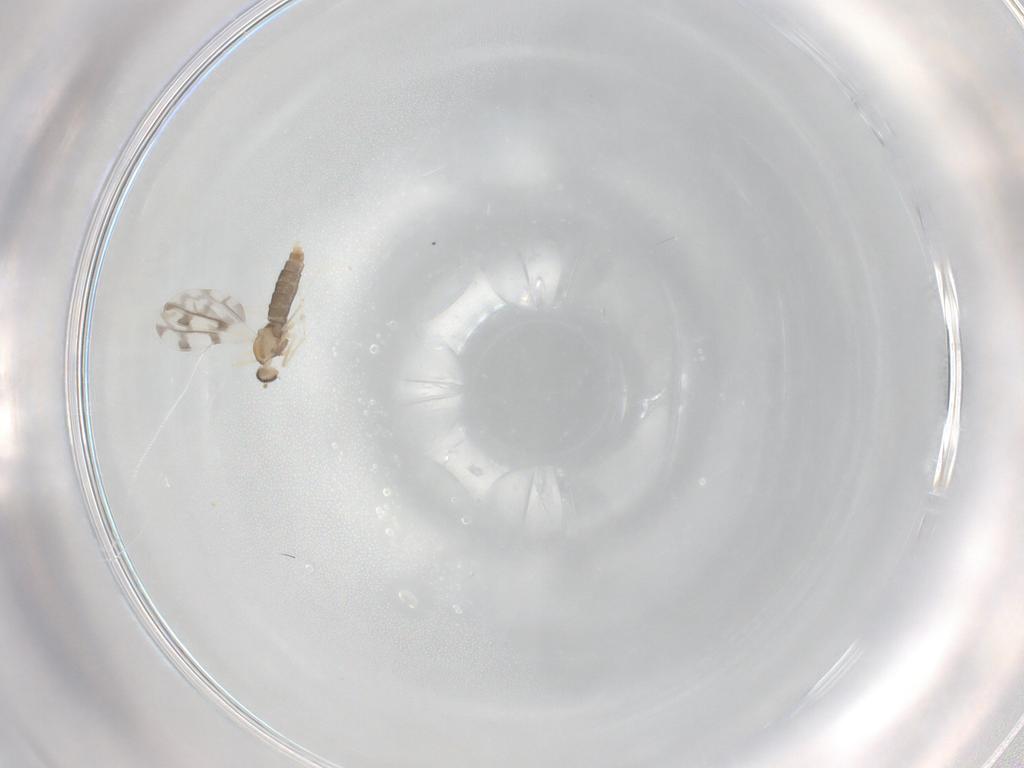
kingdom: Animalia
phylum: Arthropoda
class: Insecta
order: Diptera
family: Cecidomyiidae
